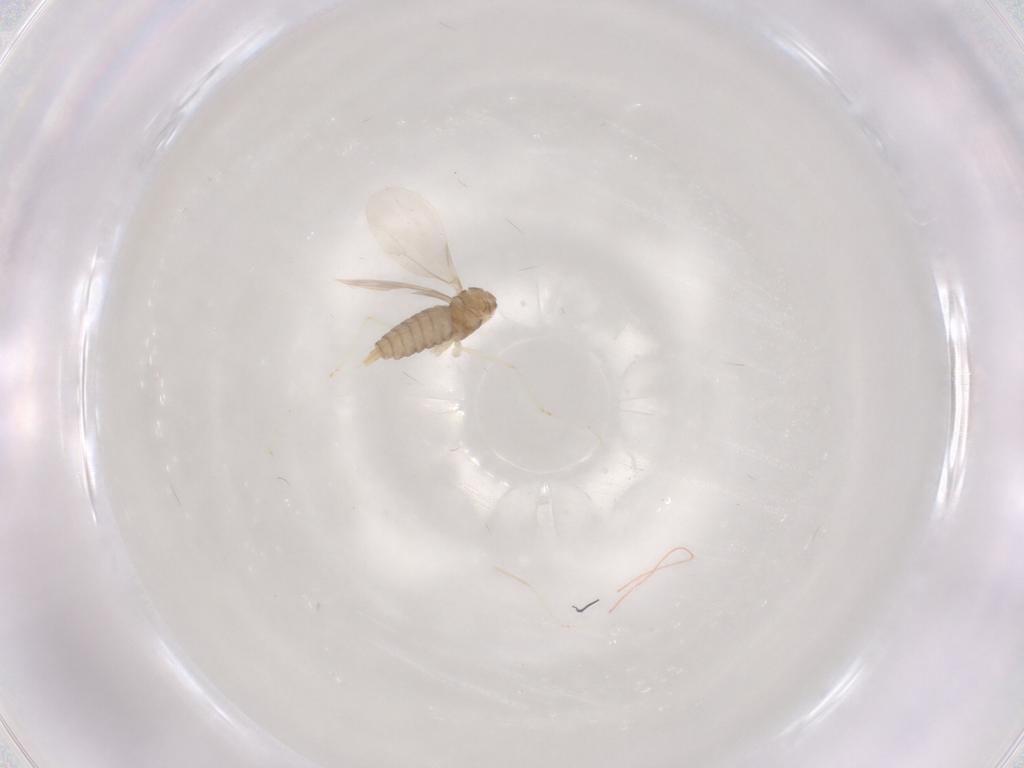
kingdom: Animalia
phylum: Arthropoda
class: Insecta
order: Diptera
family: Cecidomyiidae
